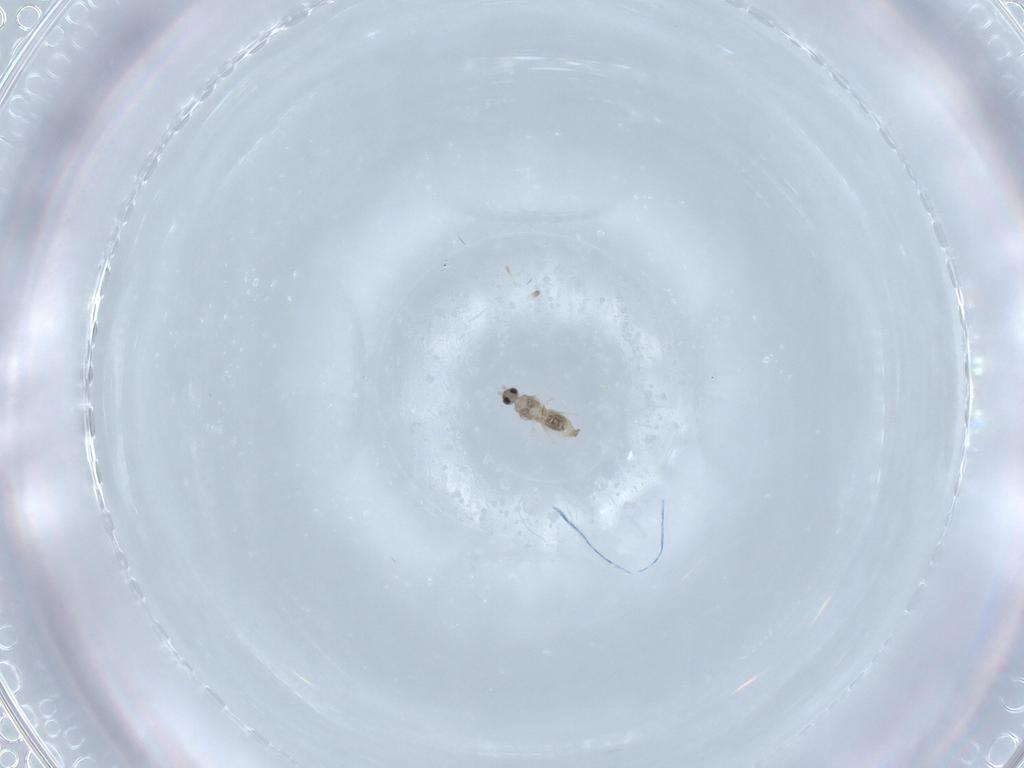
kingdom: Animalia
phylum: Arthropoda
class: Insecta
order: Diptera
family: Cecidomyiidae
